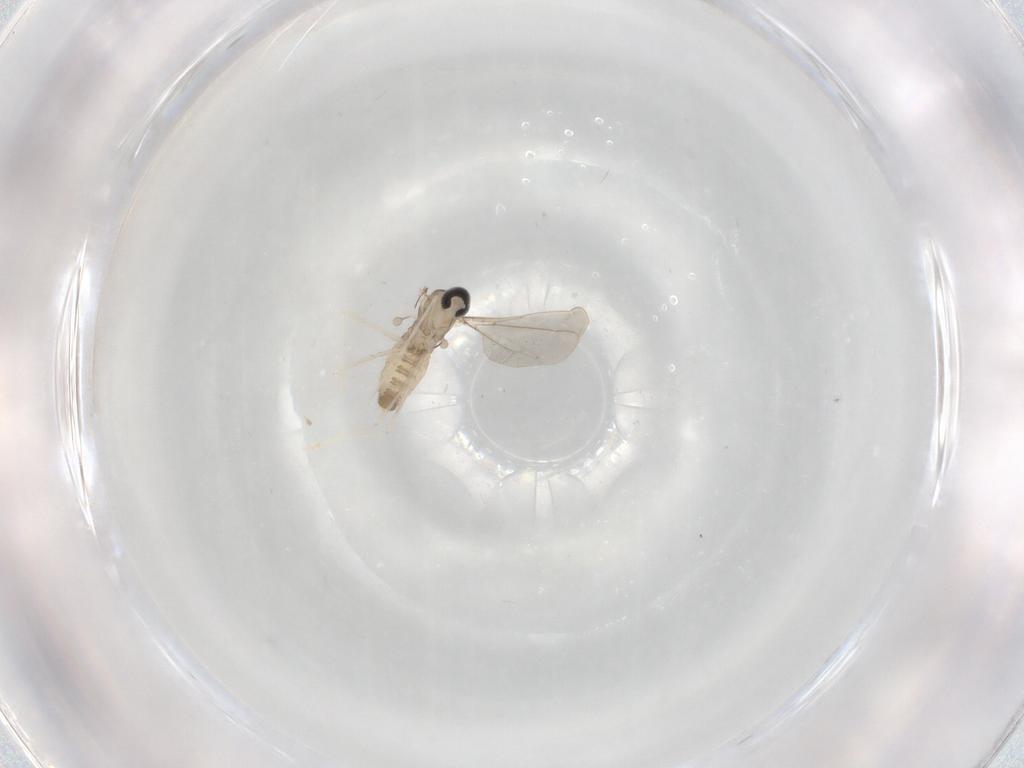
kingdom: Animalia
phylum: Arthropoda
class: Insecta
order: Diptera
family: Cecidomyiidae
